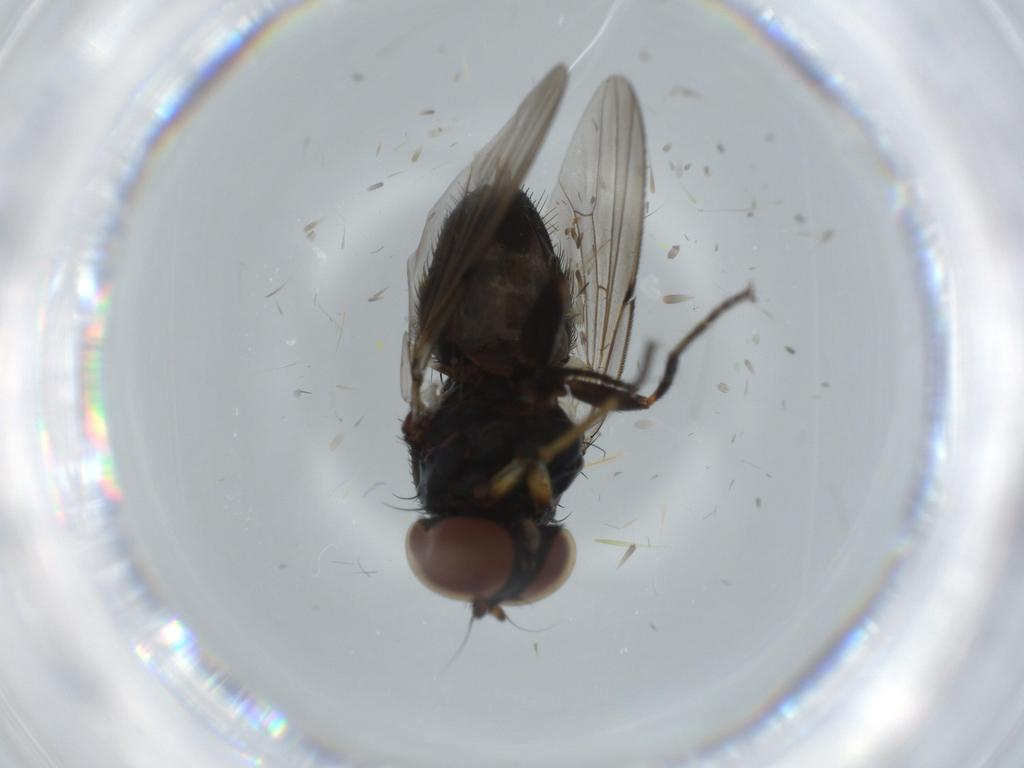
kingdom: Animalia
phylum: Arthropoda
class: Insecta
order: Diptera
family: Milichiidae
